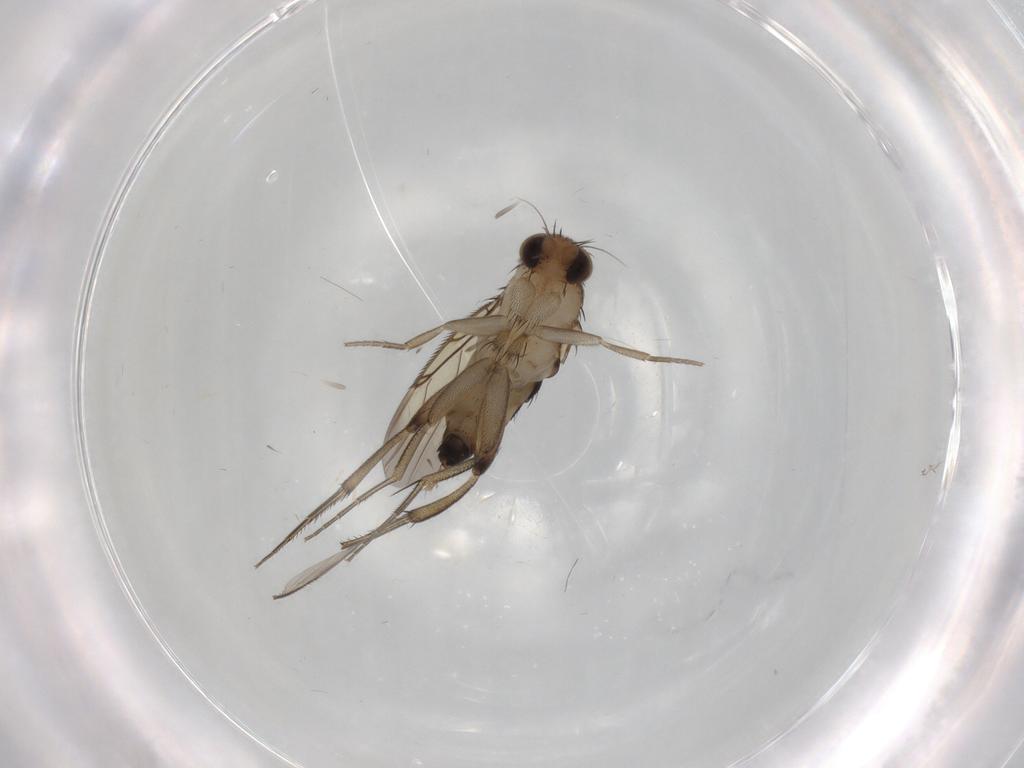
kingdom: Animalia
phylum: Arthropoda
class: Insecta
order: Diptera
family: Phoridae
